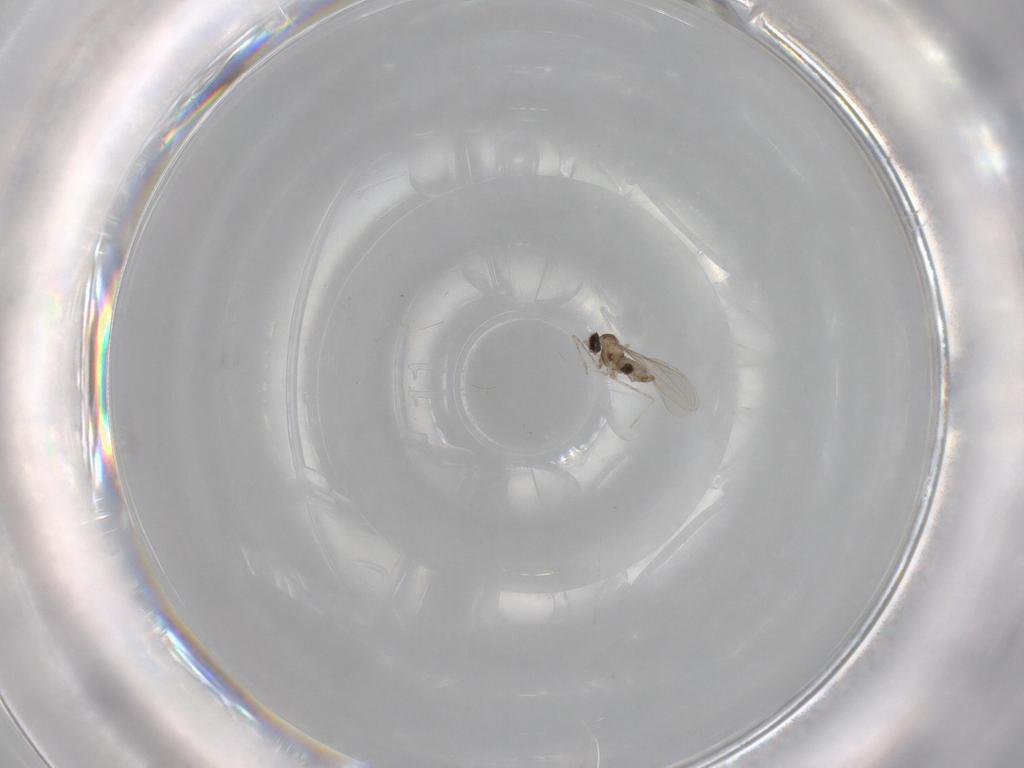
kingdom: Animalia
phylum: Arthropoda
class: Insecta
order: Diptera
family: Cecidomyiidae
